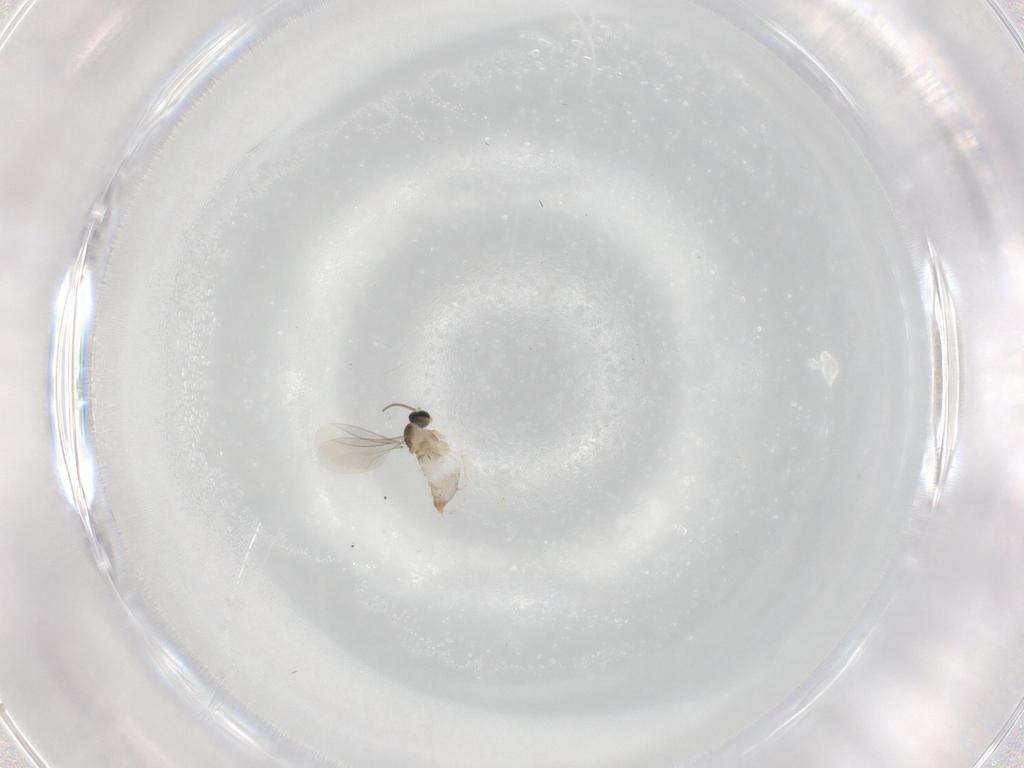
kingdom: Animalia
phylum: Arthropoda
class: Insecta
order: Diptera
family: Cecidomyiidae
